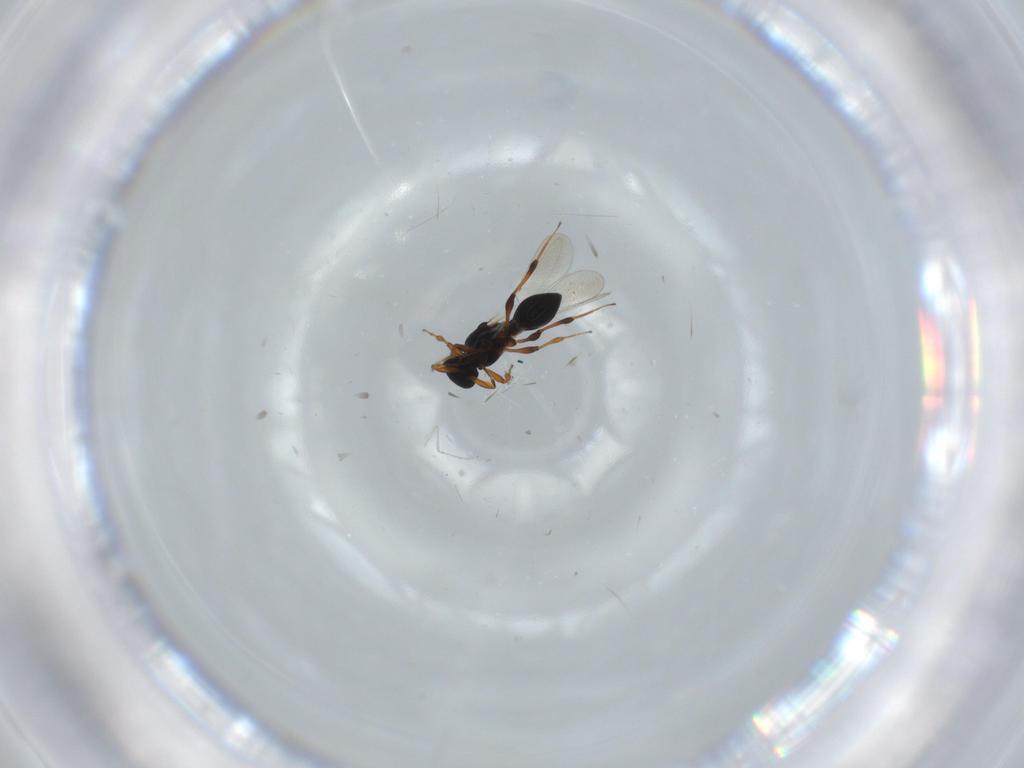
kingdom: Animalia
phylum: Arthropoda
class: Insecta
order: Hymenoptera
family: Platygastridae
